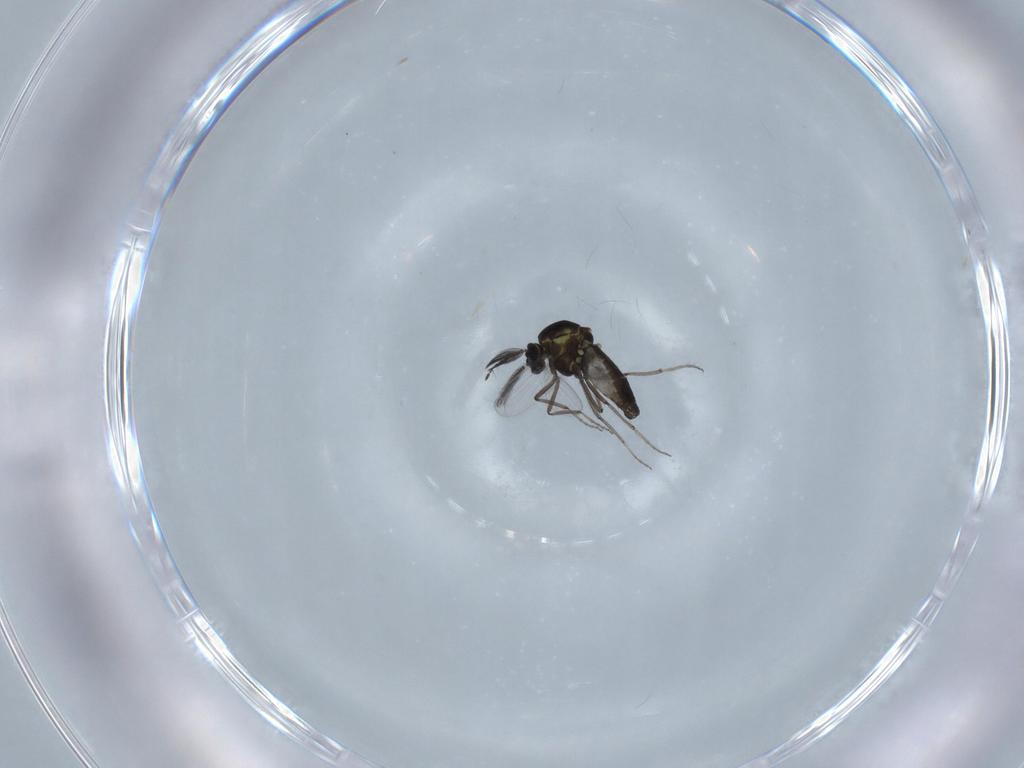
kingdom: Animalia
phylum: Arthropoda
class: Insecta
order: Diptera
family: Ceratopogonidae
